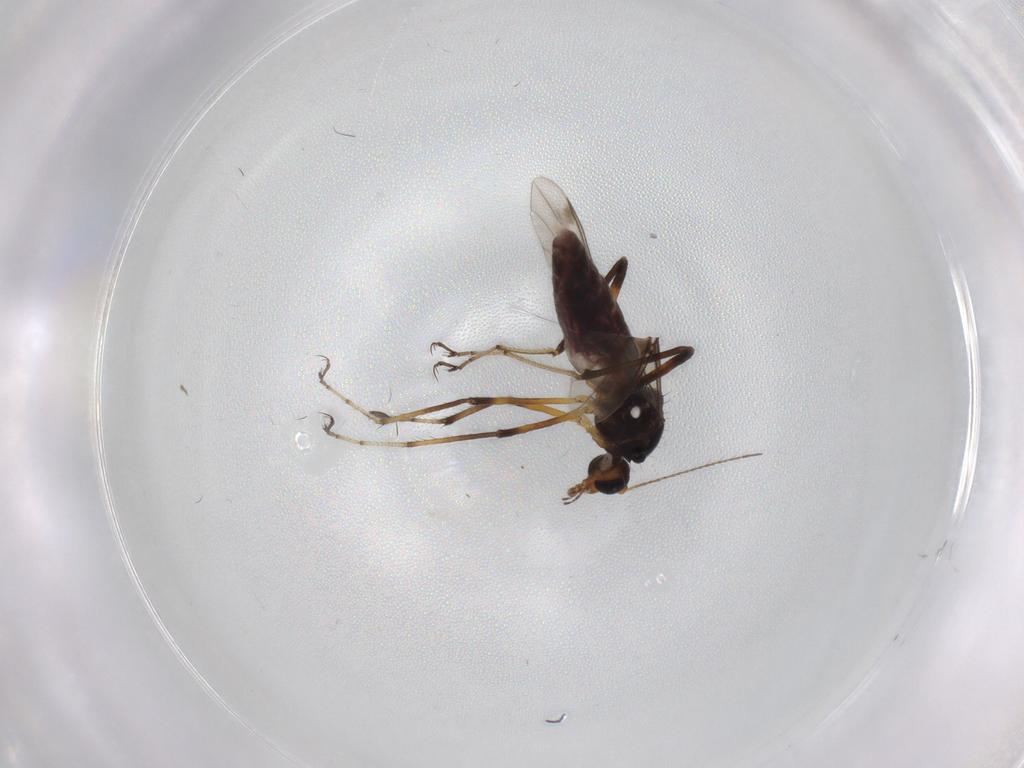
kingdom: Animalia
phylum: Arthropoda
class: Insecta
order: Diptera
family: Ceratopogonidae
